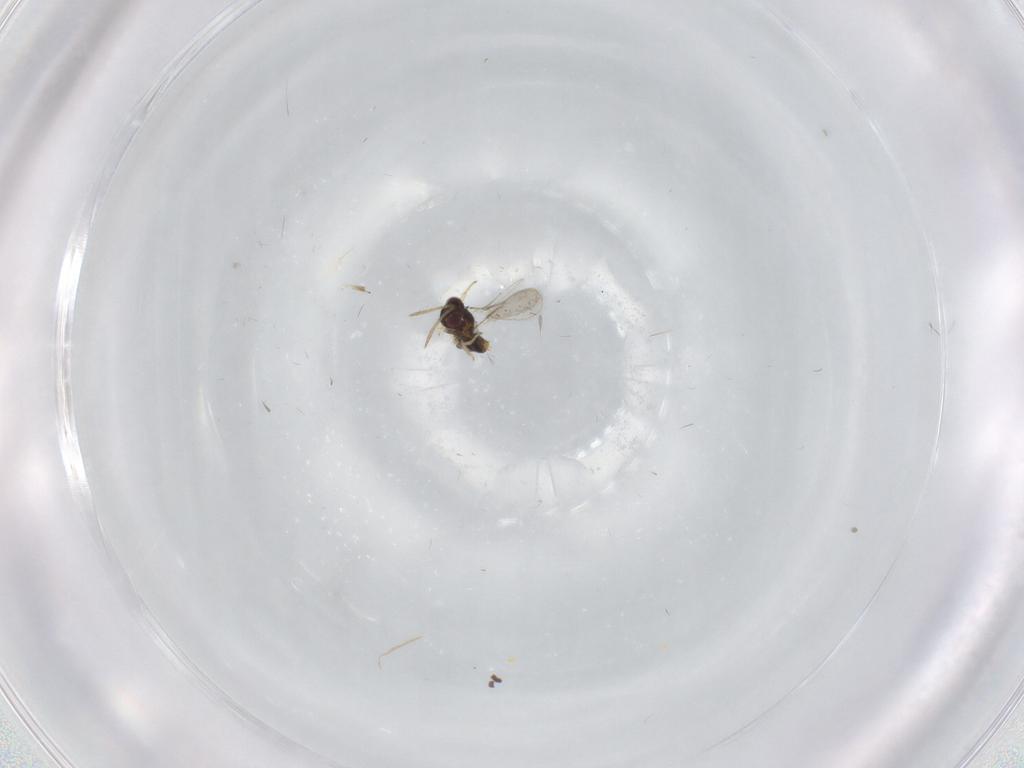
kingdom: Animalia
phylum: Arthropoda
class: Insecta
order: Hymenoptera
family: Aphelinidae
